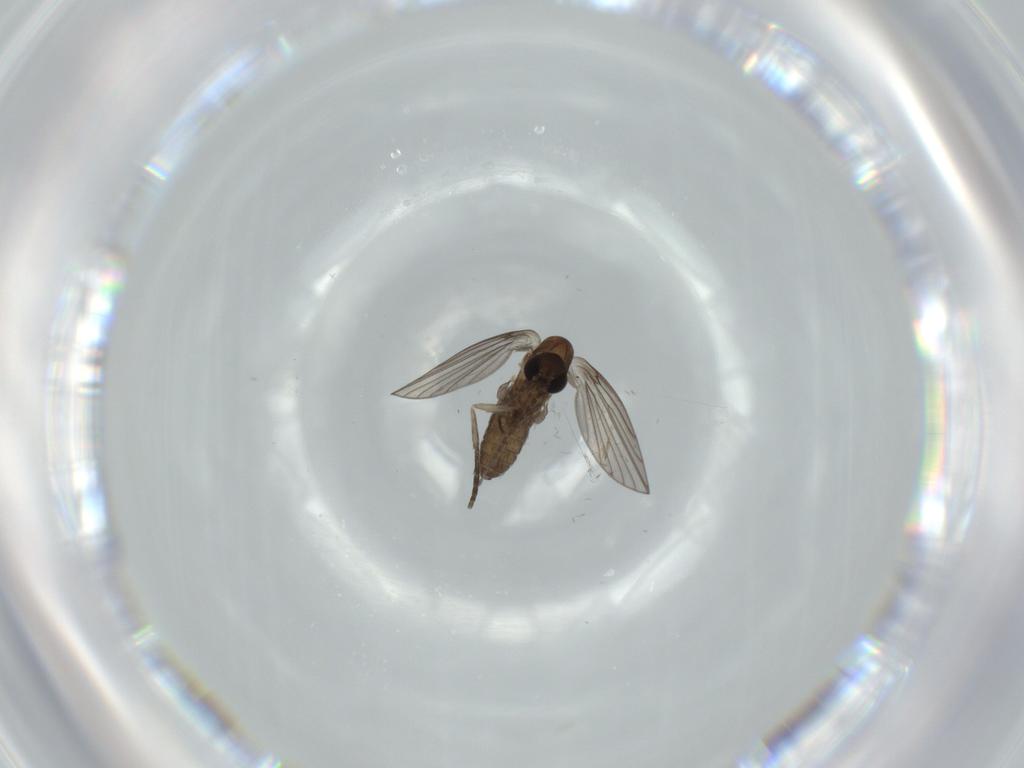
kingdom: Animalia
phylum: Arthropoda
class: Insecta
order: Diptera
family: Psychodidae
